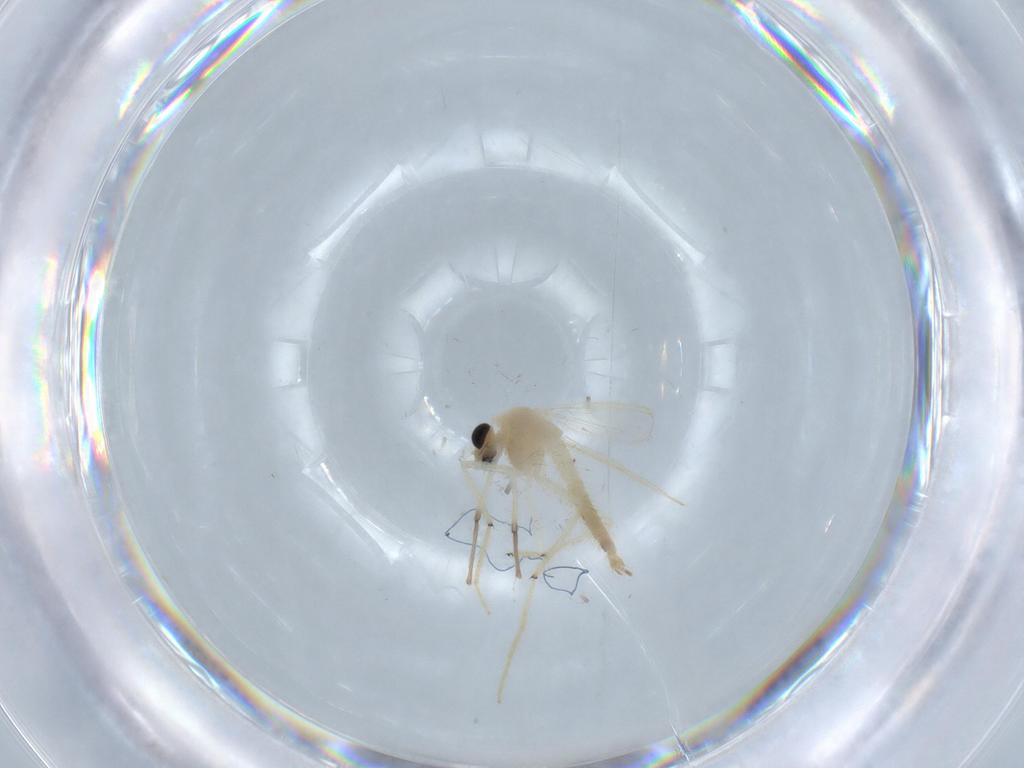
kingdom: Animalia
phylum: Arthropoda
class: Insecta
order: Diptera
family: Chironomidae
